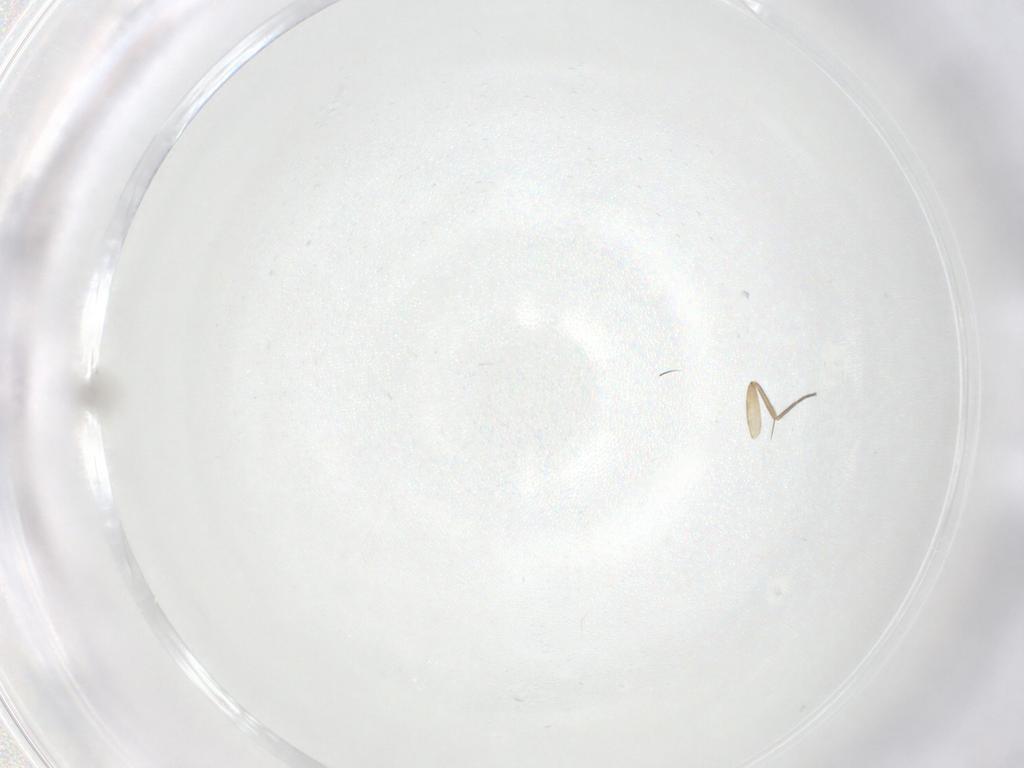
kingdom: Animalia
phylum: Arthropoda
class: Insecta
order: Diptera
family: Phoridae
